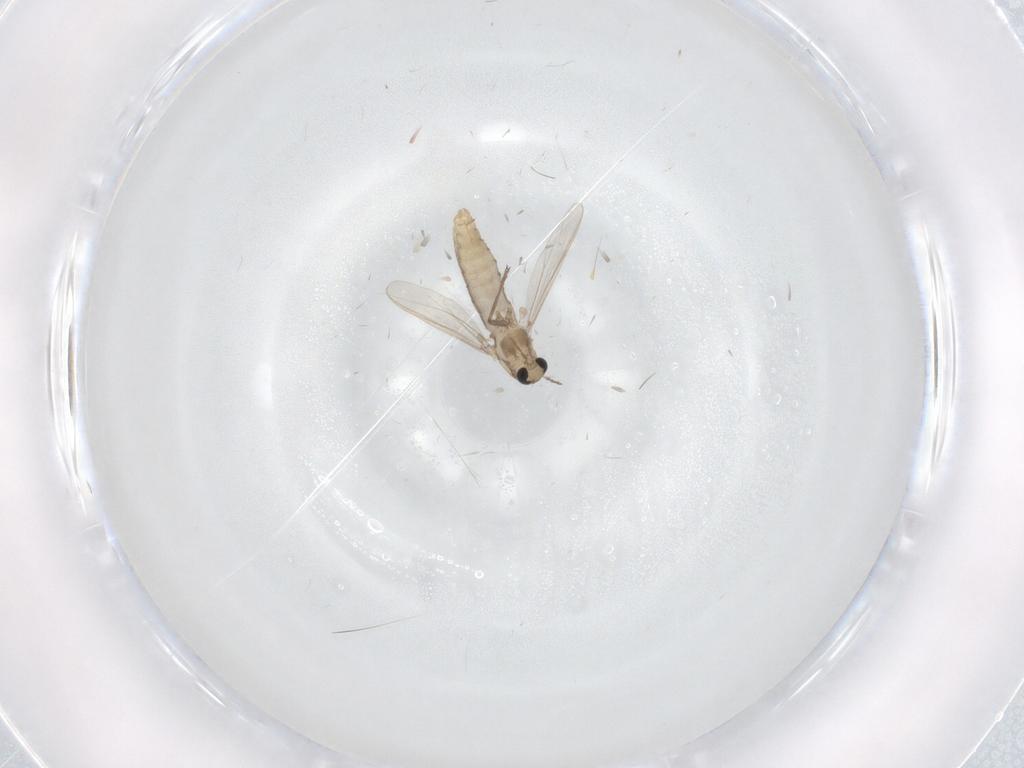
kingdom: Animalia
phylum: Arthropoda
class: Insecta
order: Diptera
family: Chironomidae
